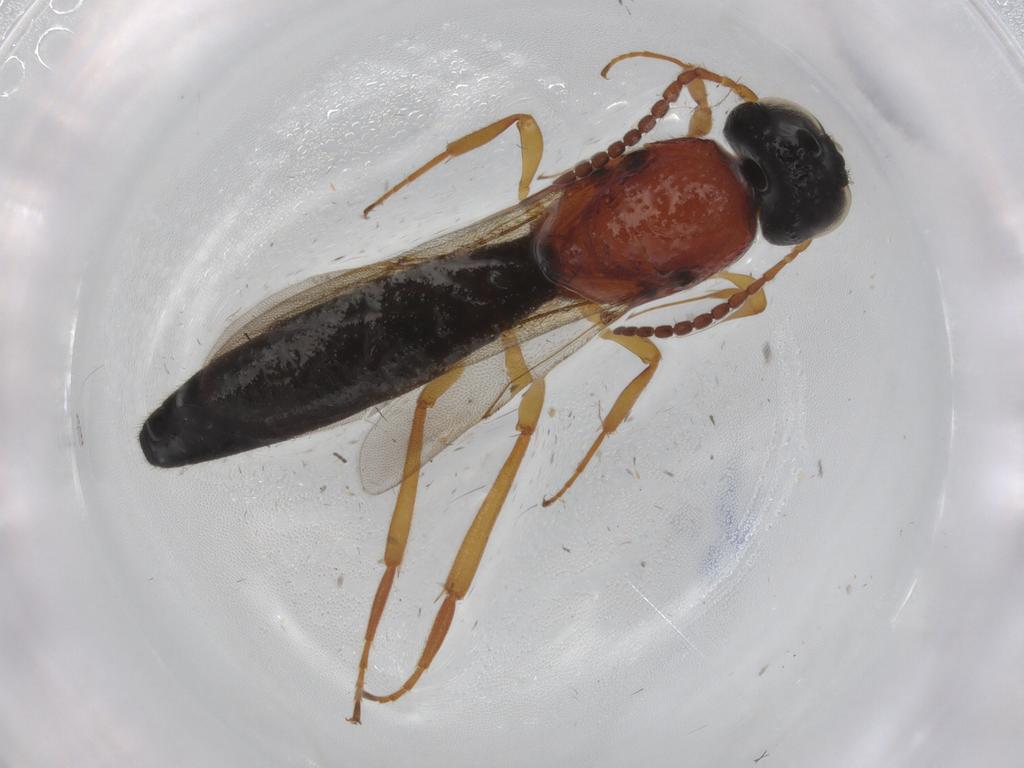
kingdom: Animalia
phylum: Arthropoda
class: Insecta
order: Hymenoptera
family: Scelionidae
